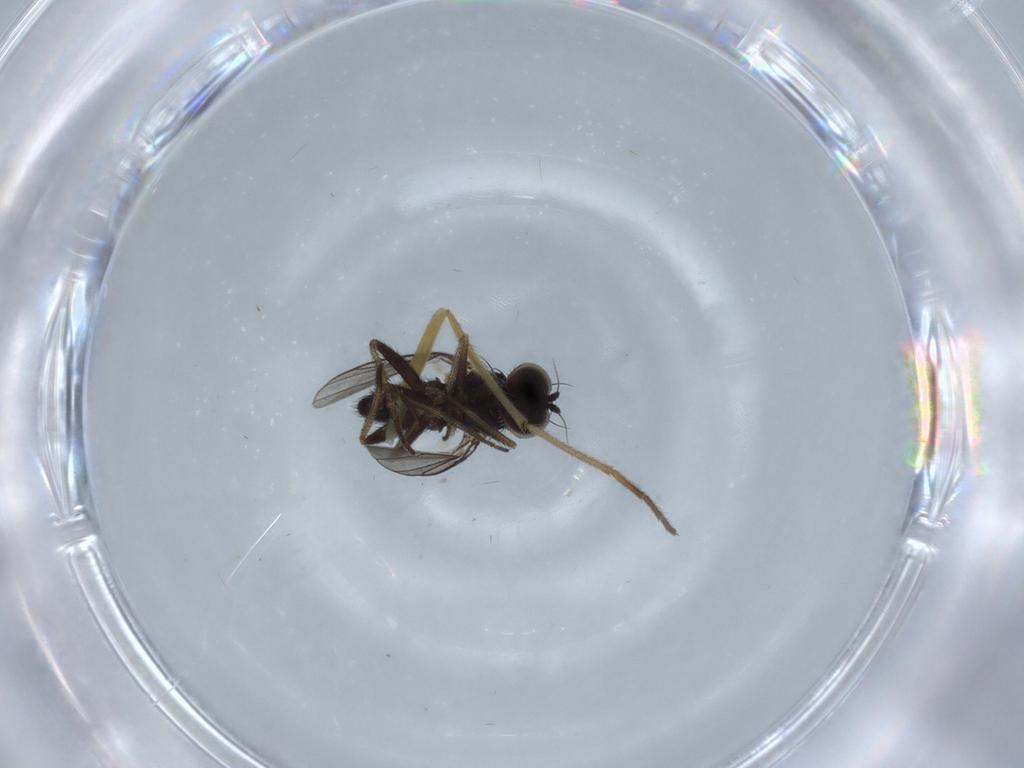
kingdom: Animalia
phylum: Arthropoda
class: Insecta
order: Diptera
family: Chironomidae
